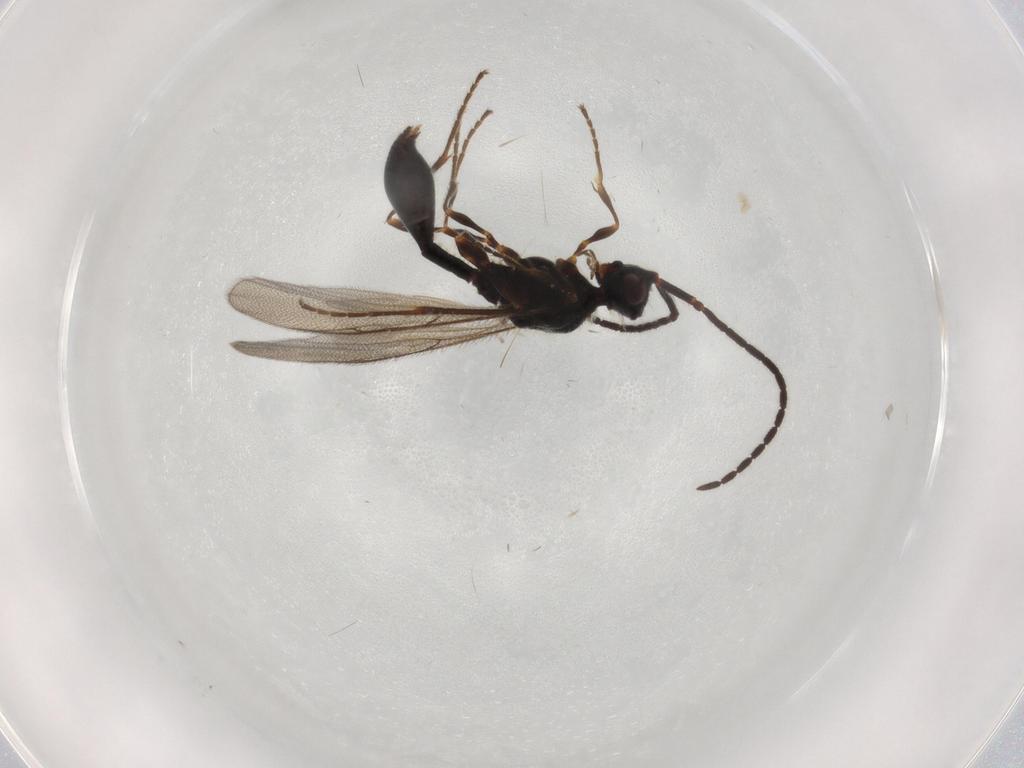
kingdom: Animalia
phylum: Arthropoda
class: Insecta
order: Hymenoptera
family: Diapriidae
